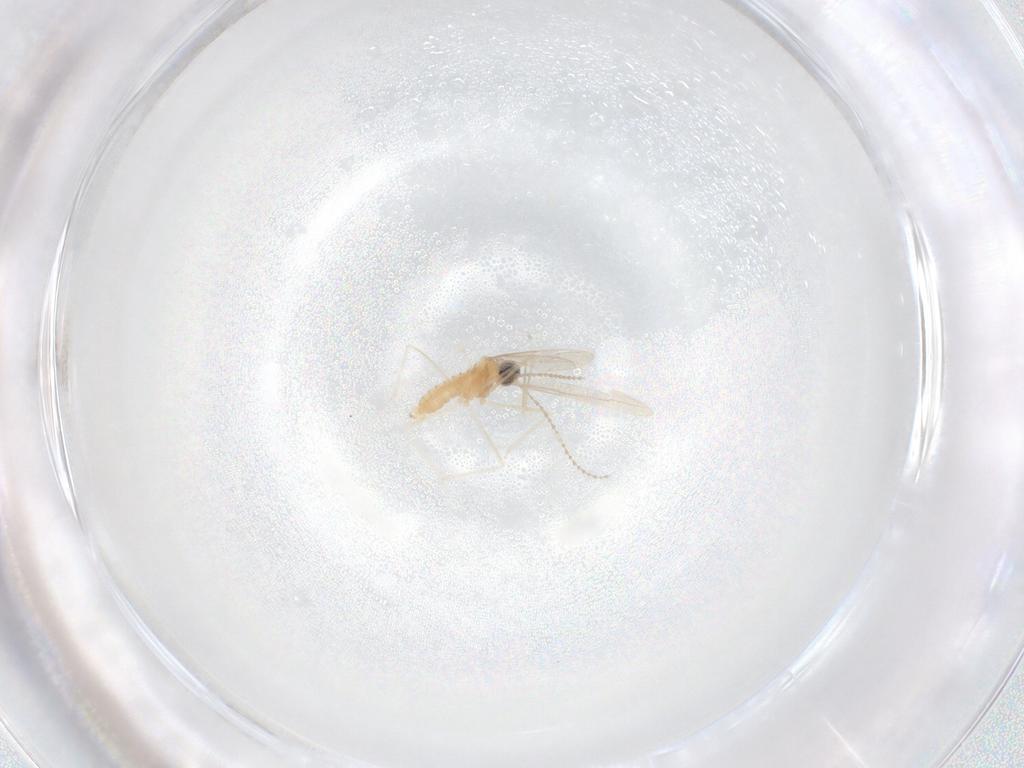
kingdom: Animalia
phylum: Arthropoda
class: Insecta
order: Diptera
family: Cecidomyiidae
